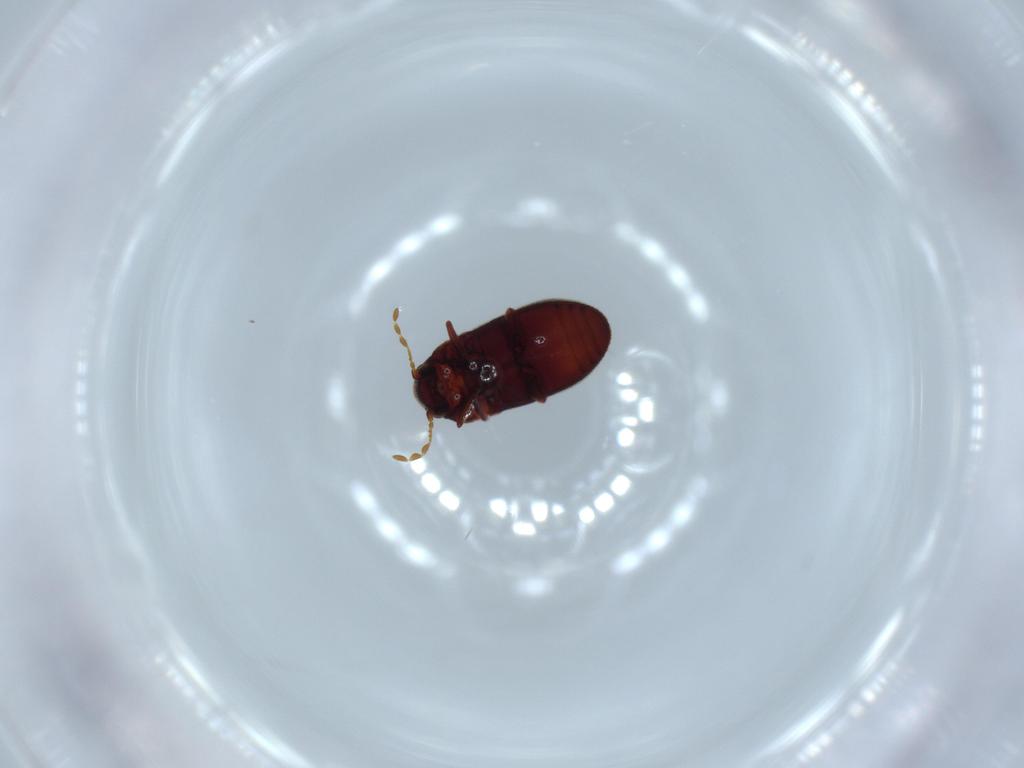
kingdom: Animalia
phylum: Arthropoda
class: Insecta
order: Coleoptera
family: Anobiidae
